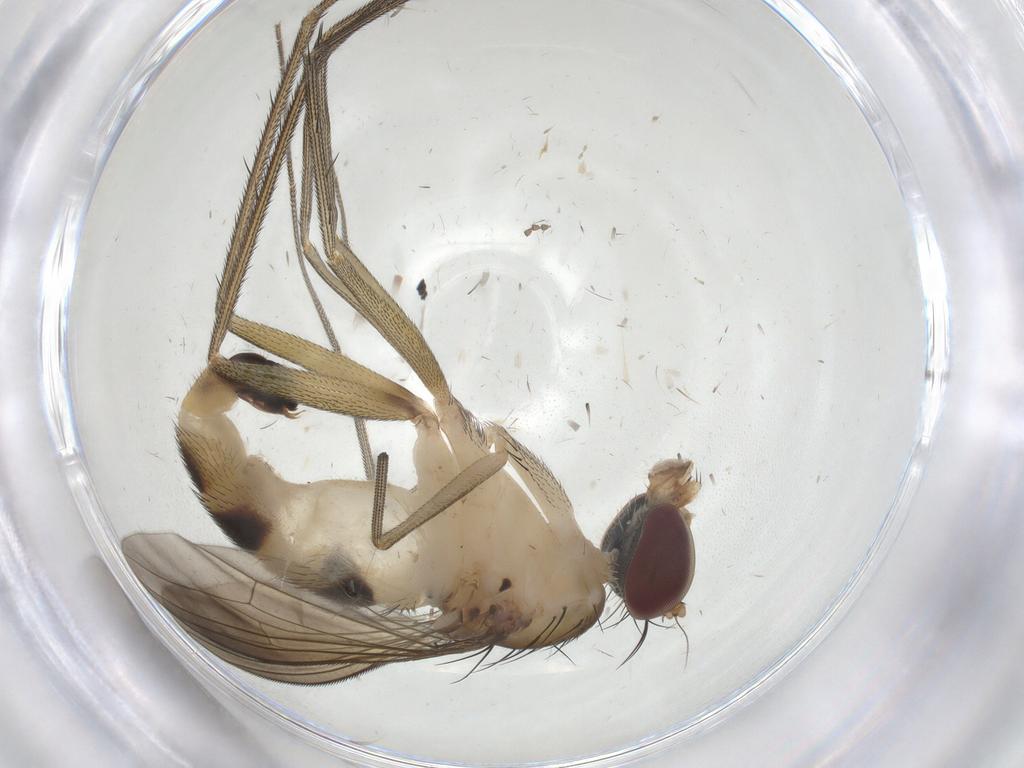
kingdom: Animalia
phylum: Arthropoda
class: Insecta
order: Diptera
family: Dolichopodidae
